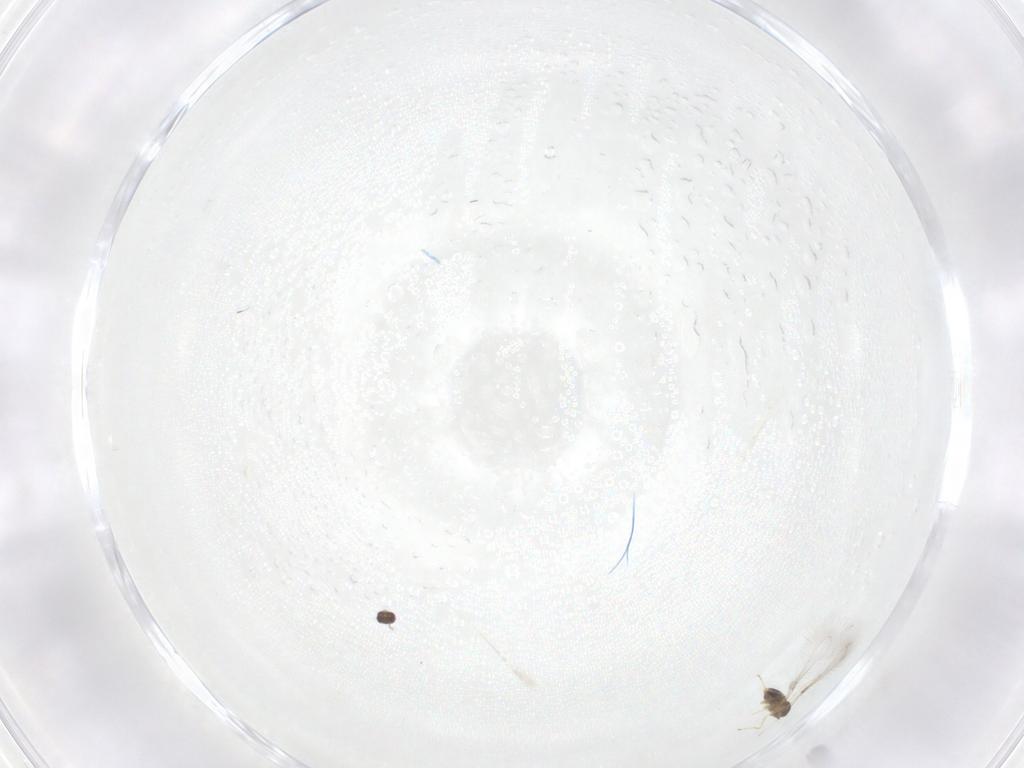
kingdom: Animalia
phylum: Arthropoda
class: Insecta
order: Hymenoptera
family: Mymaridae
